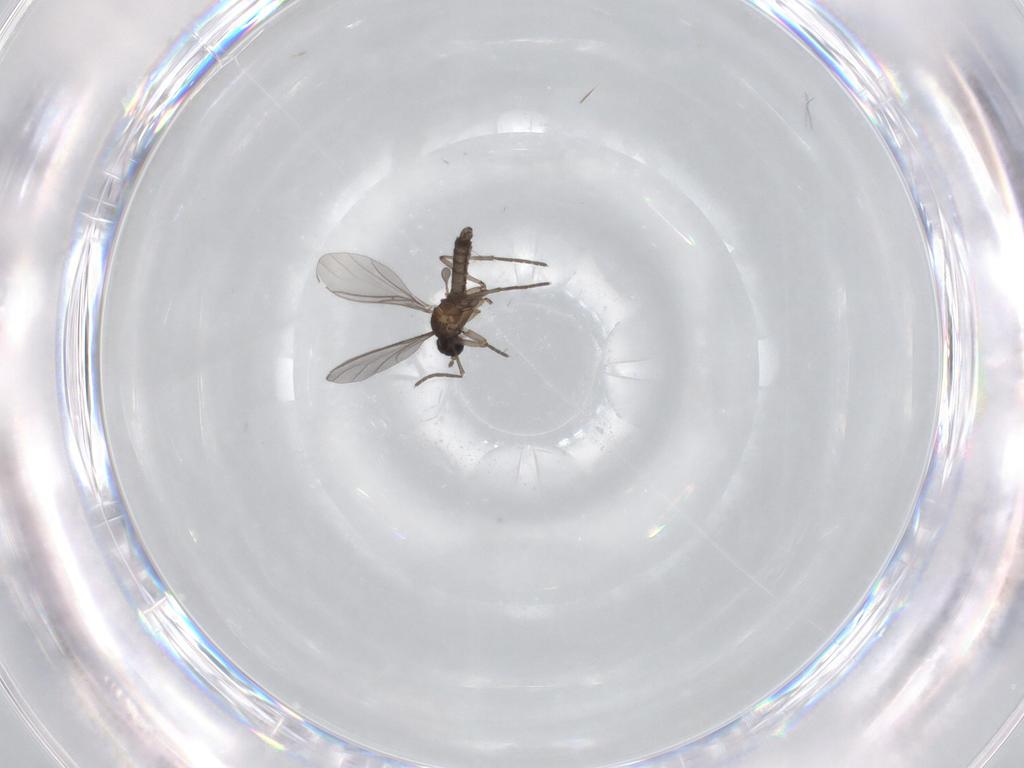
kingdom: Animalia
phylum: Arthropoda
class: Insecta
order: Diptera
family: Sciaridae
